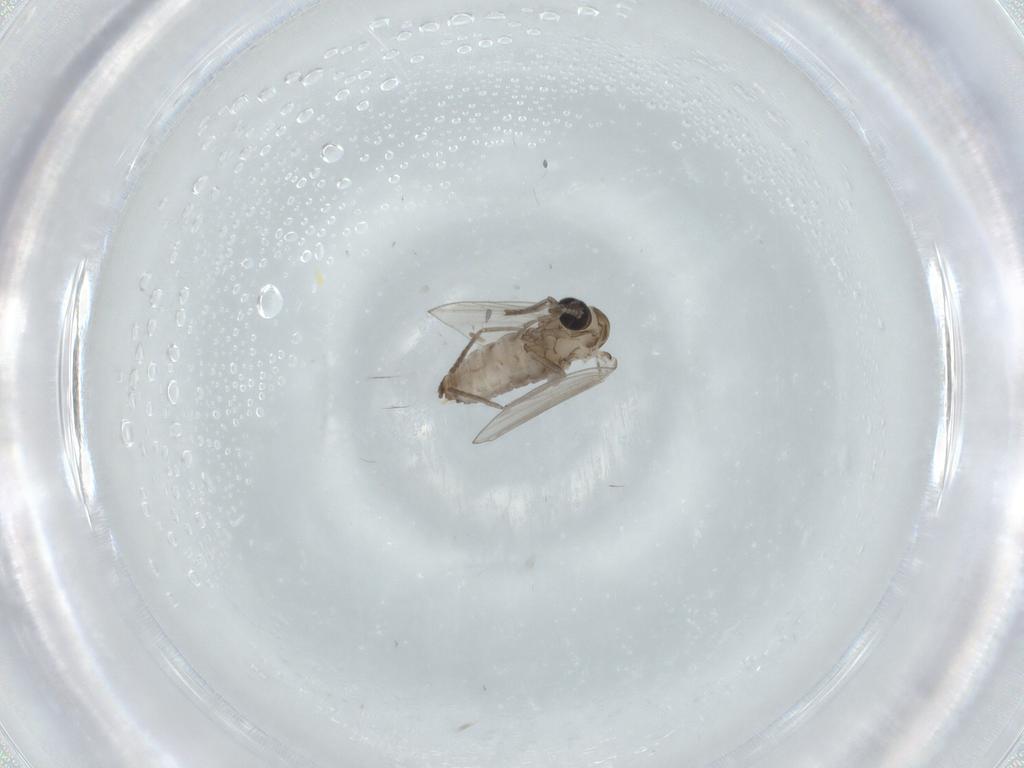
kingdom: Animalia
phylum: Arthropoda
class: Insecta
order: Diptera
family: Psychodidae
